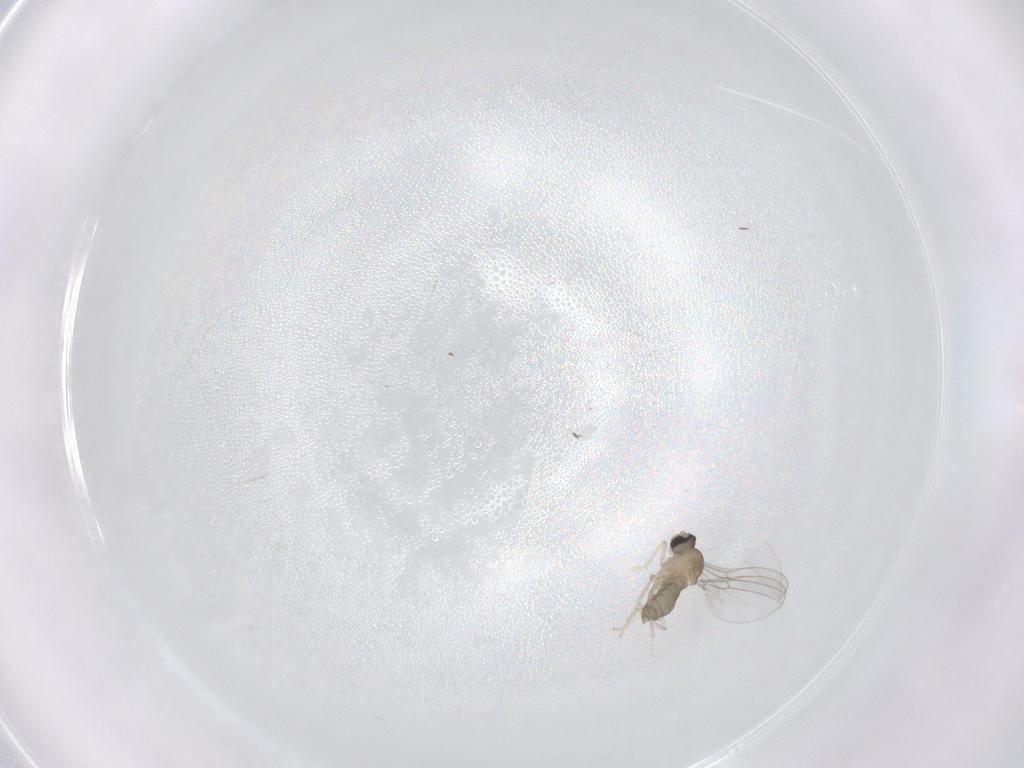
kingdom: Animalia
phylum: Arthropoda
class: Insecta
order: Diptera
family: Cecidomyiidae
